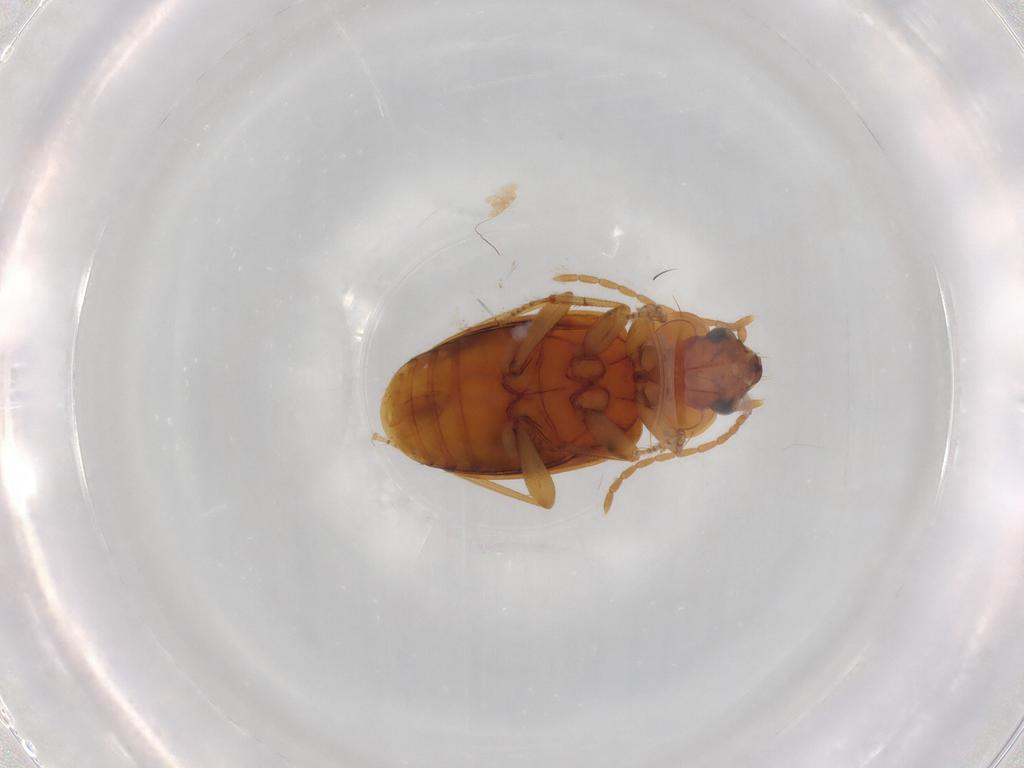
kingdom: Animalia
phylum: Arthropoda
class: Insecta
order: Coleoptera
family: Carabidae
